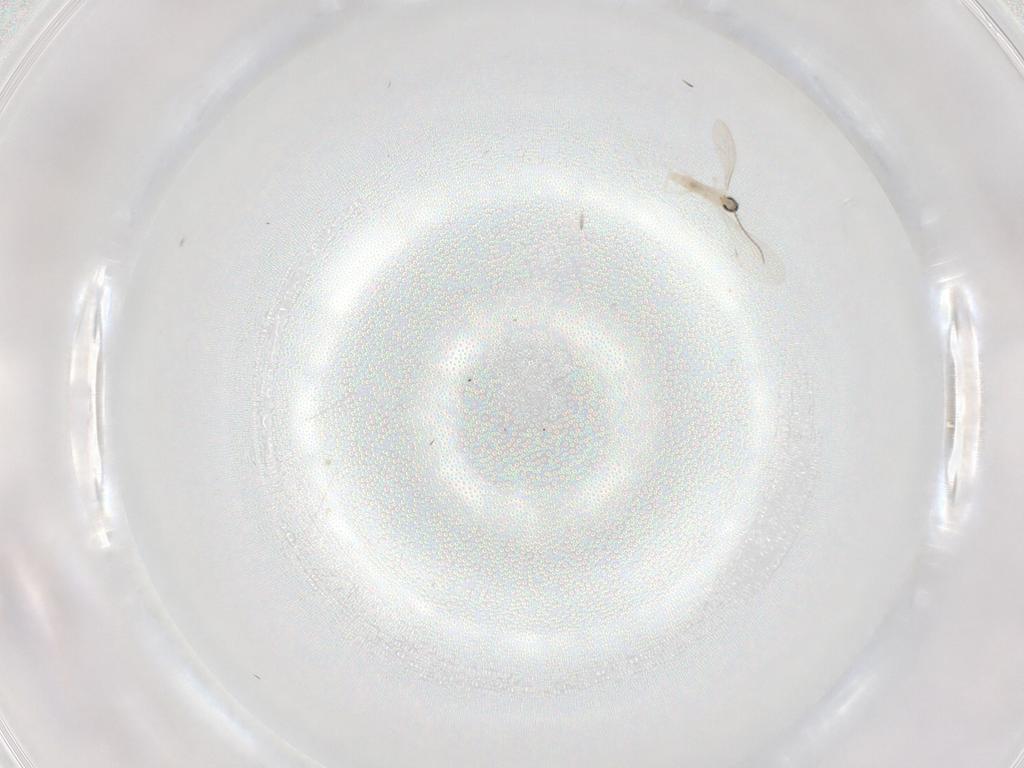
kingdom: Animalia
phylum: Arthropoda
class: Insecta
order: Diptera
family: Cecidomyiidae
